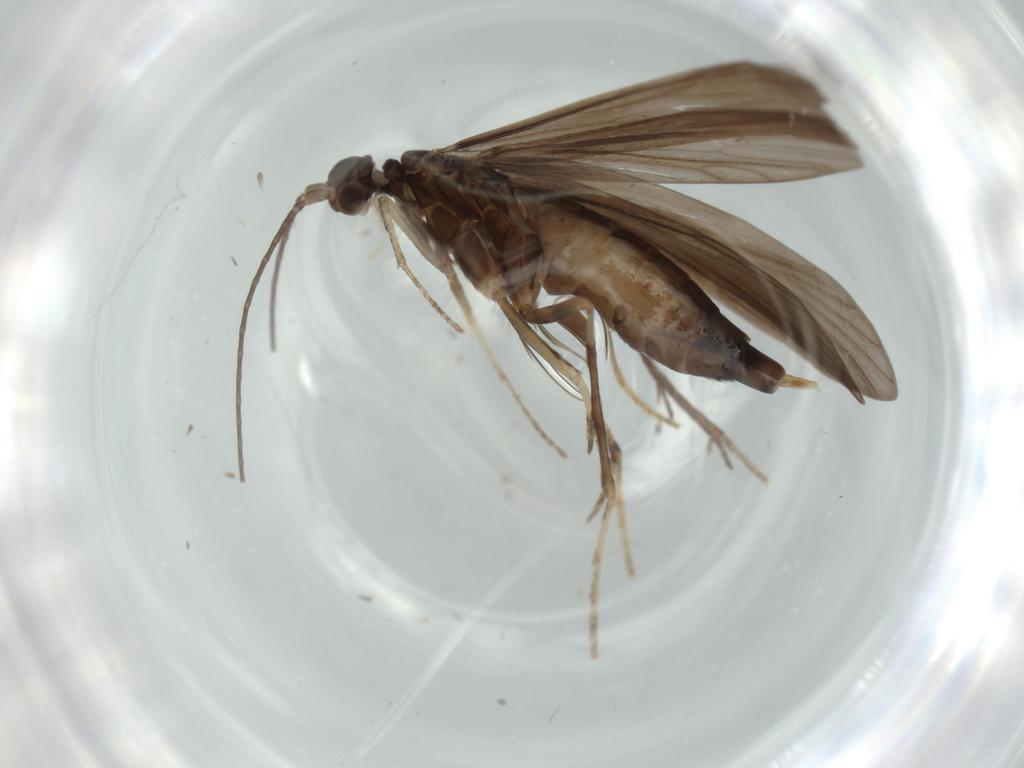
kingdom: Animalia
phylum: Arthropoda
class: Insecta
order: Trichoptera
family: Xiphocentronidae
